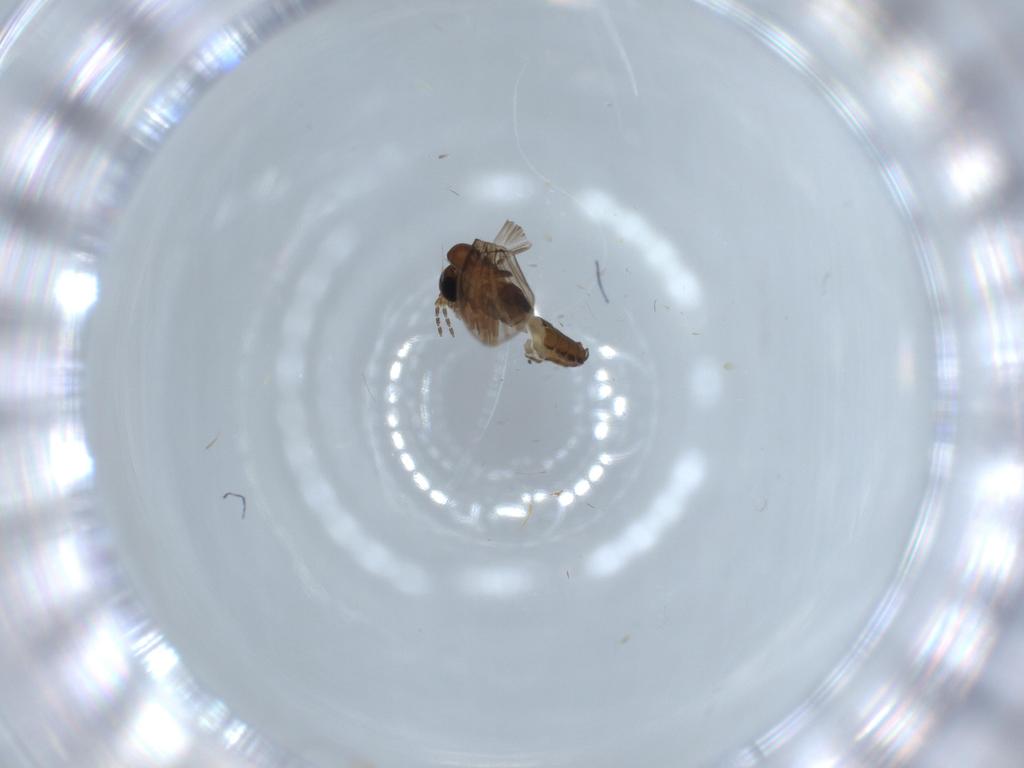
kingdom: Animalia
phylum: Arthropoda
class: Insecta
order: Diptera
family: Psychodidae
